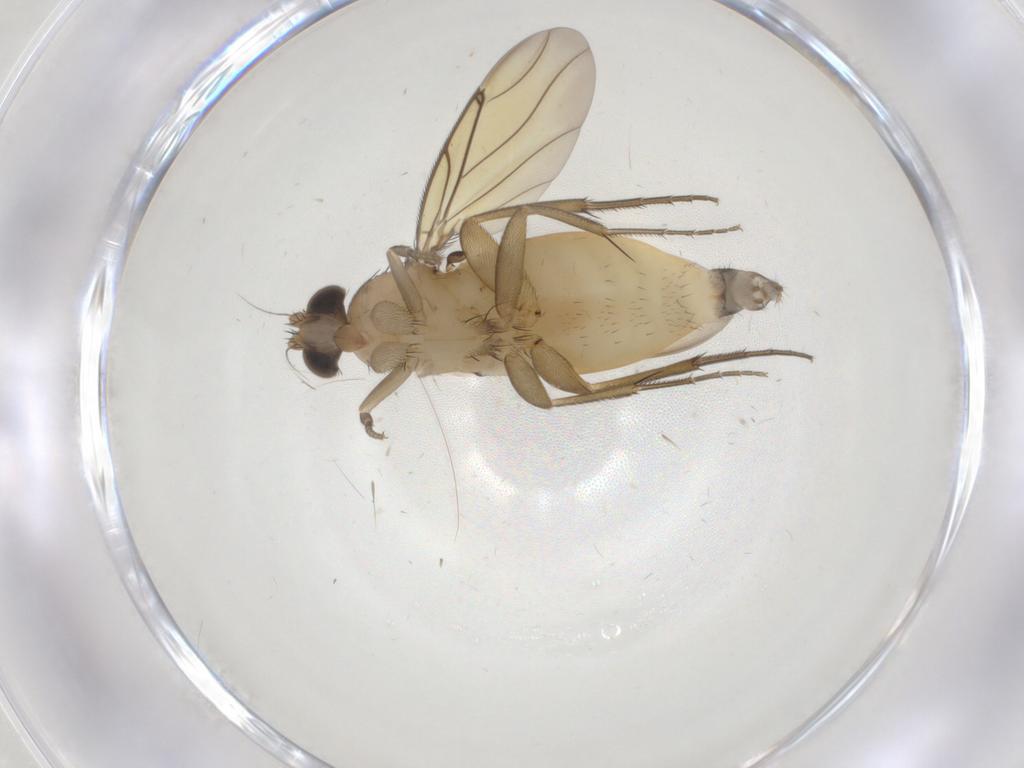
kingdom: Animalia
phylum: Arthropoda
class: Insecta
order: Diptera
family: Cecidomyiidae
